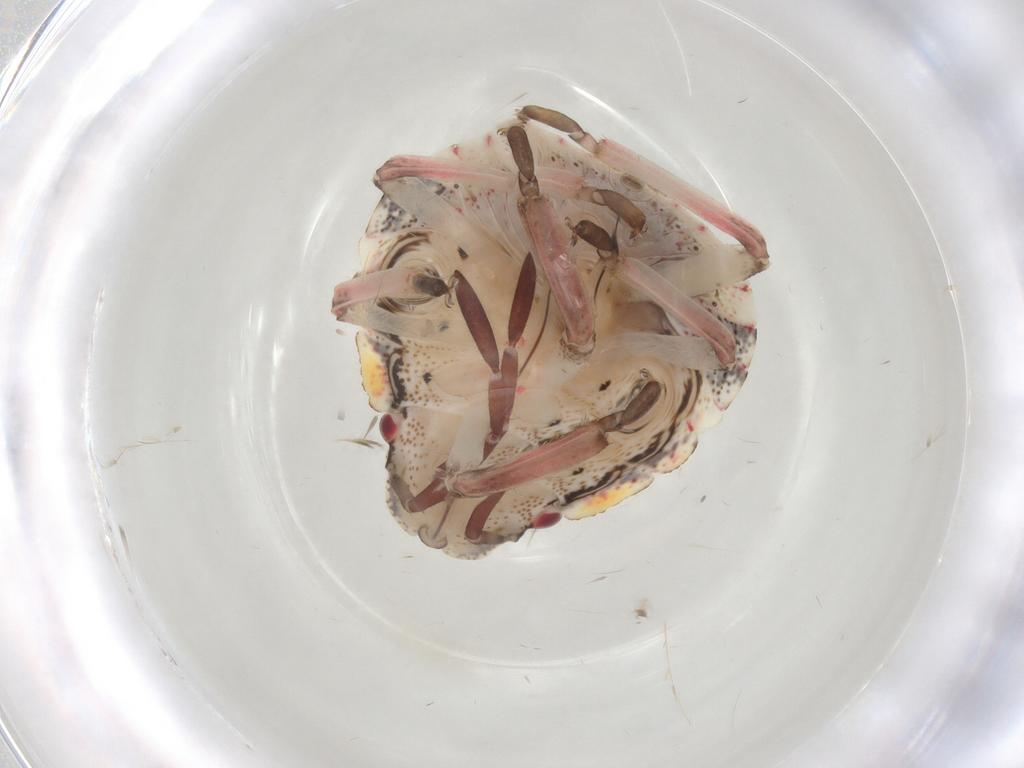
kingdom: Animalia
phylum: Arthropoda
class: Insecta
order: Hemiptera
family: Pentatomidae
